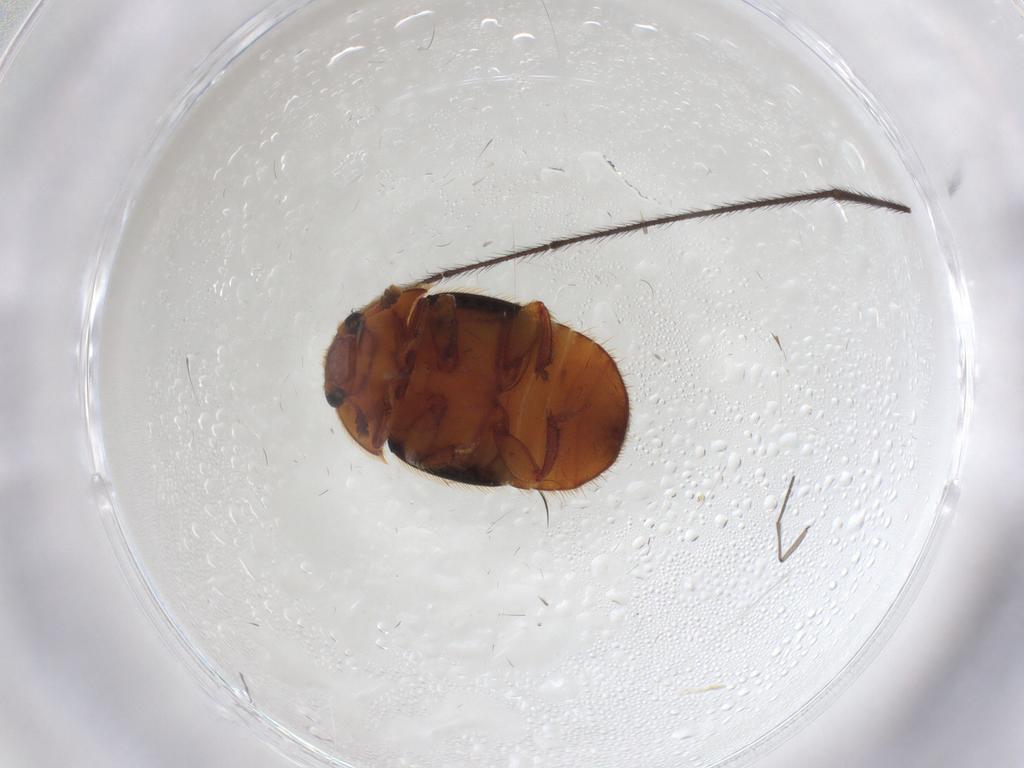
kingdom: Animalia
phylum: Arthropoda
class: Insecta
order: Coleoptera
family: Nitidulidae
